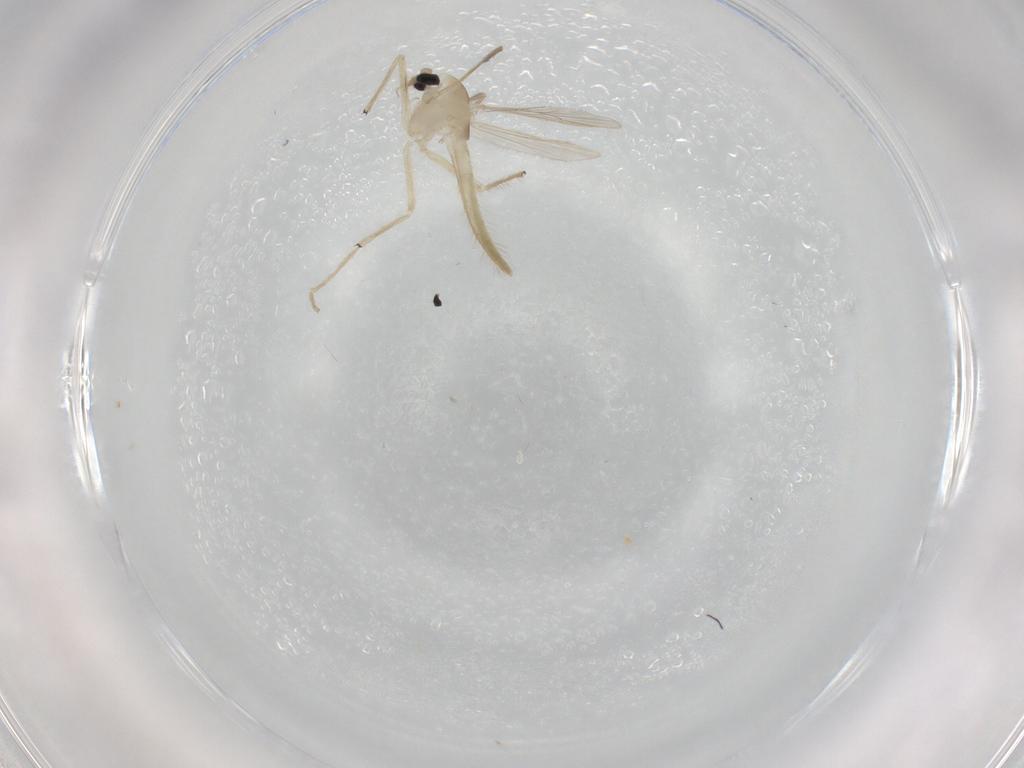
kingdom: Animalia
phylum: Arthropoda
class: Insecta
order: Diptera
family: Chironomidae
